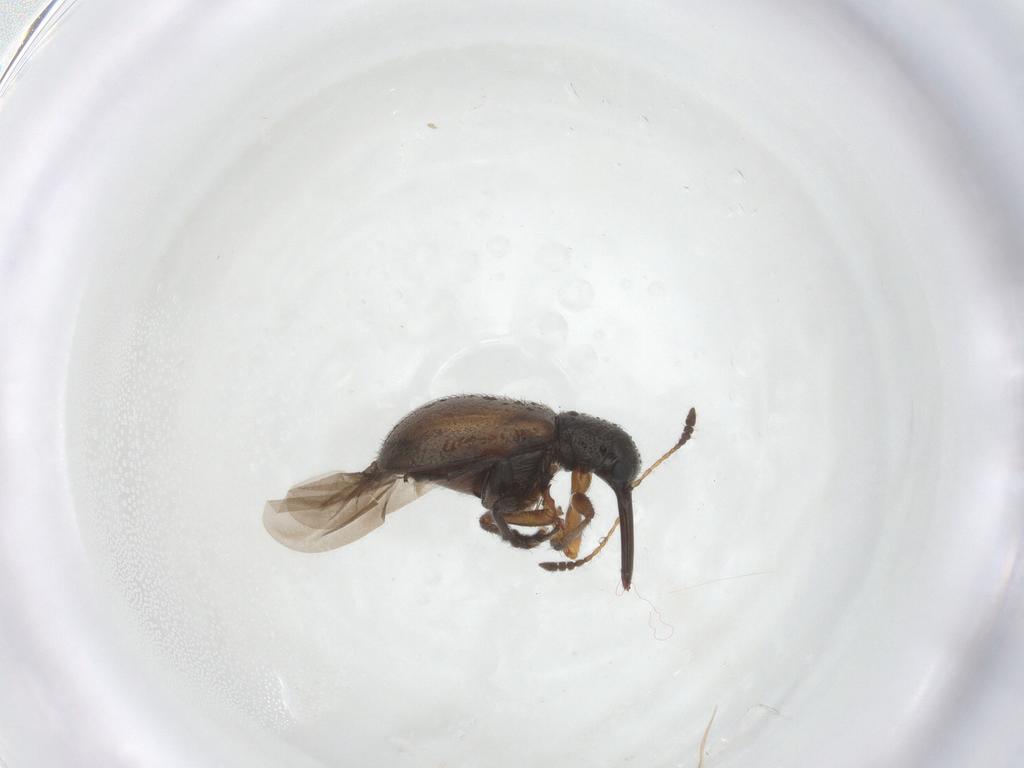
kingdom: Animalia
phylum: Arthropoda
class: Insecta
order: Coleoptera
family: Attelabidae
